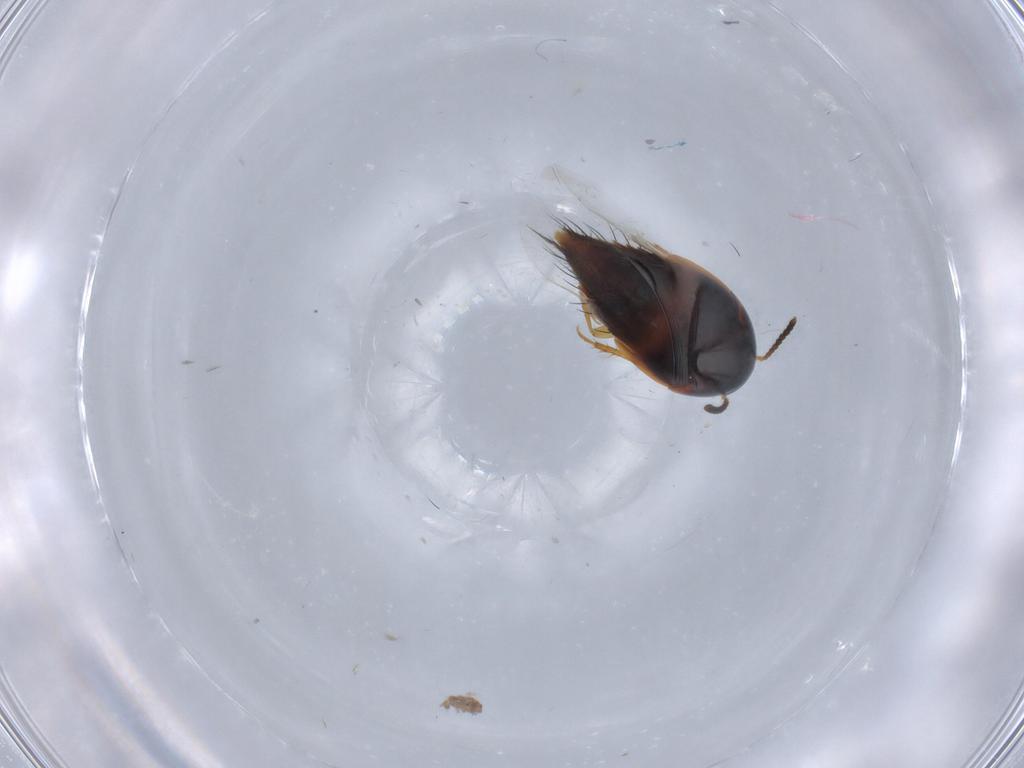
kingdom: Animalia
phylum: Arthropoda
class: Insecta
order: Coleoptera
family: Staphylinidae
